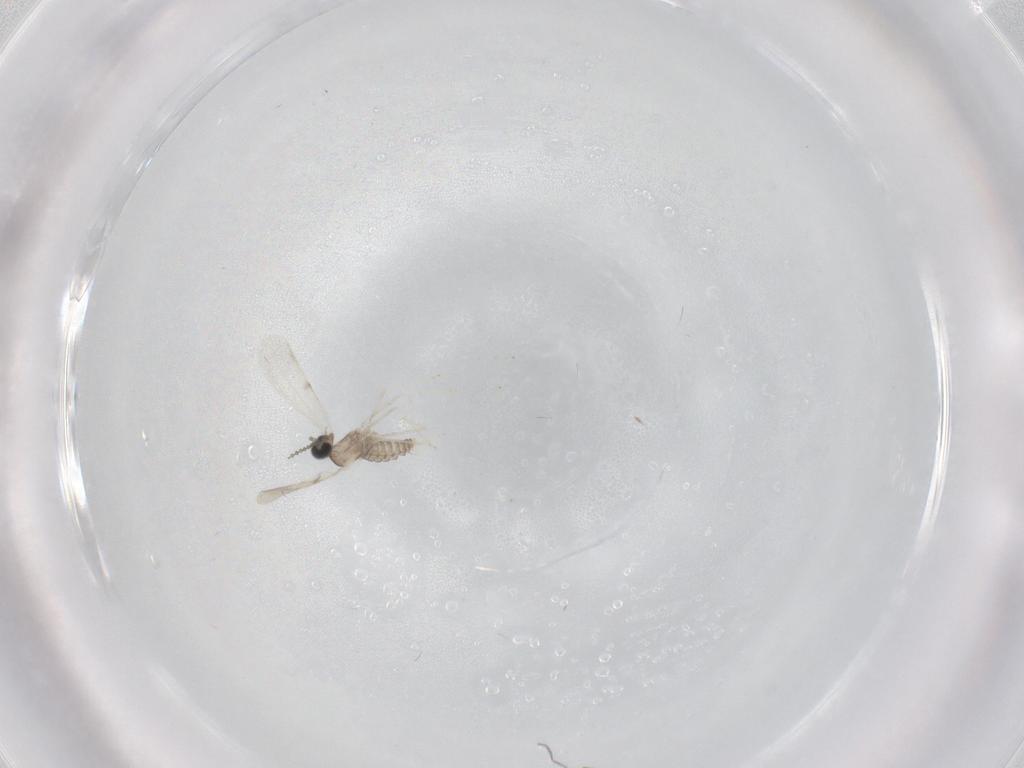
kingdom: Animalia
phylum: Arthropoda
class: Insecta
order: Diptera
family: Cecidomyiidae
